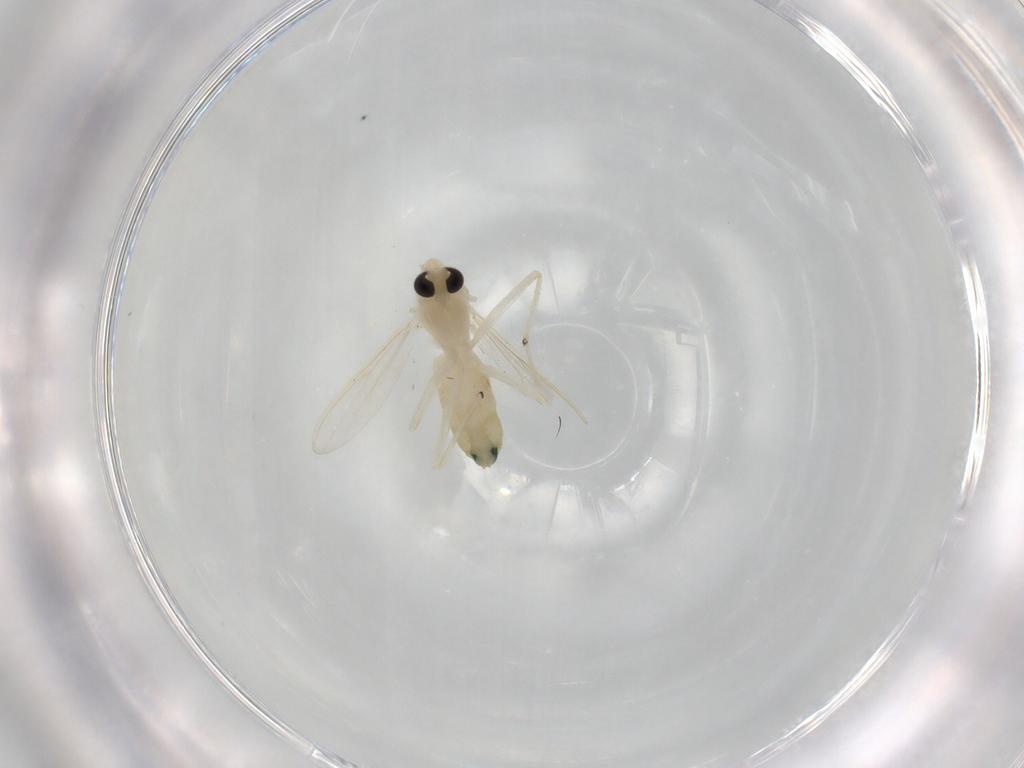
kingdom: Animalia
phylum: Arthropoda
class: Insecta
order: Diptera
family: Chironomidae
